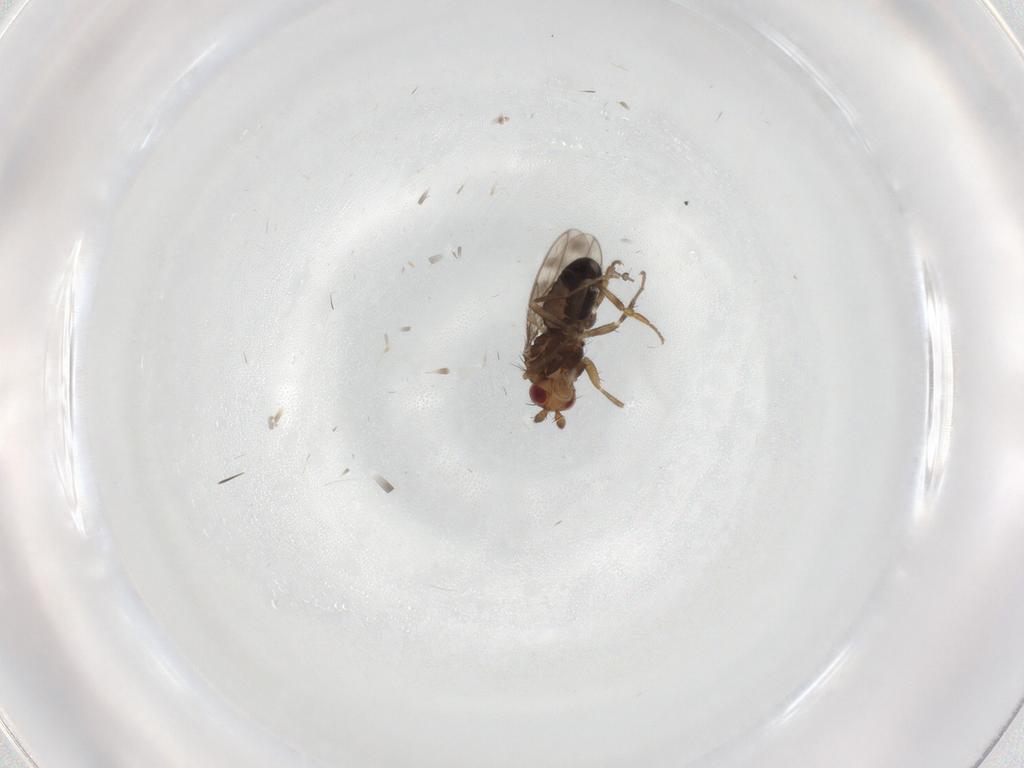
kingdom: Animalia
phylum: Arthropoda
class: Insecta
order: Diptera
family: Sphaeroceridae
